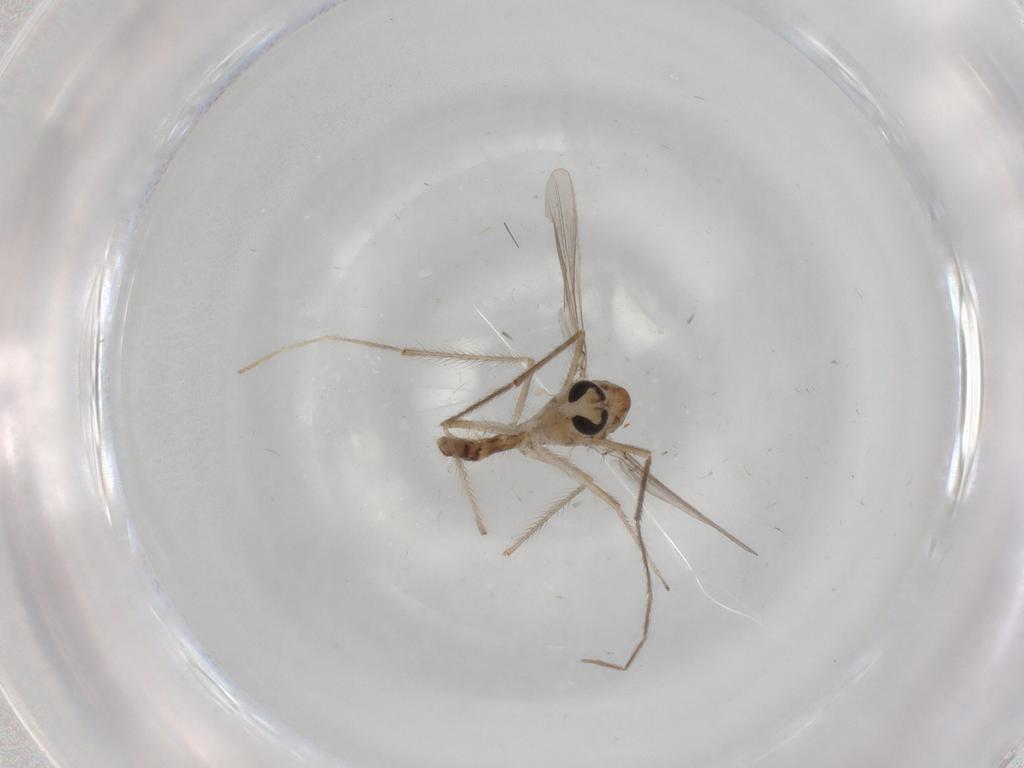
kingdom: Animalia
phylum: Arthropoda
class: Insecta
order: Diptera
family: Chironomidae
